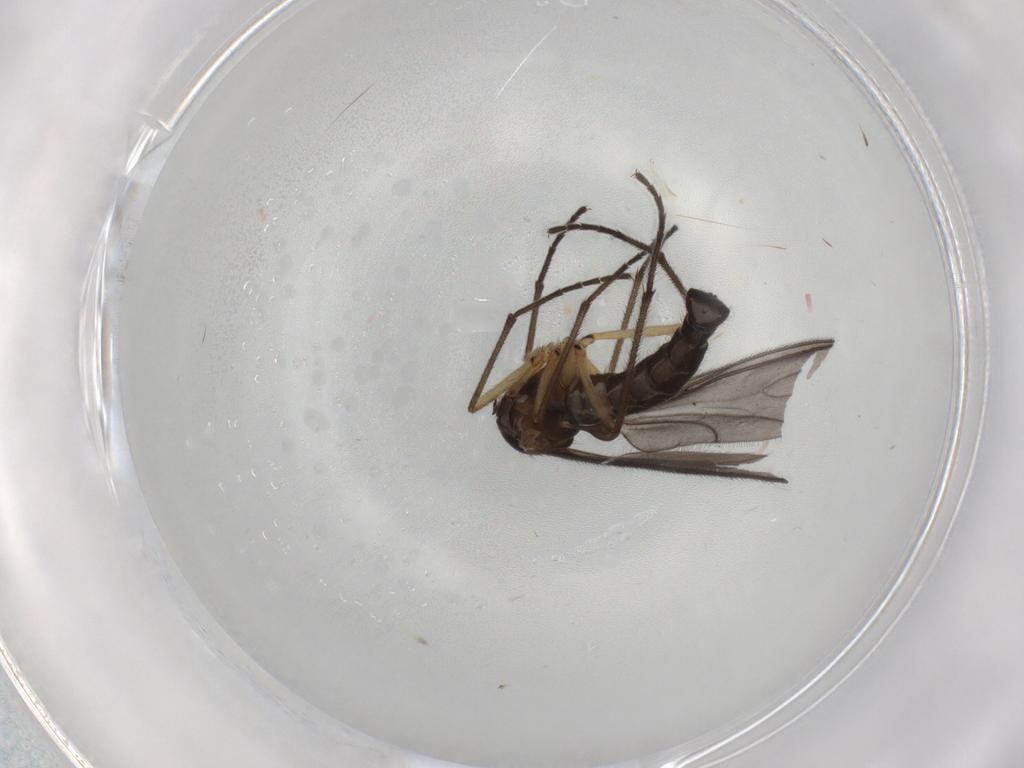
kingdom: Animalia
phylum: Arthropoda
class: Insecta
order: Diptera
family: Sciaridae
